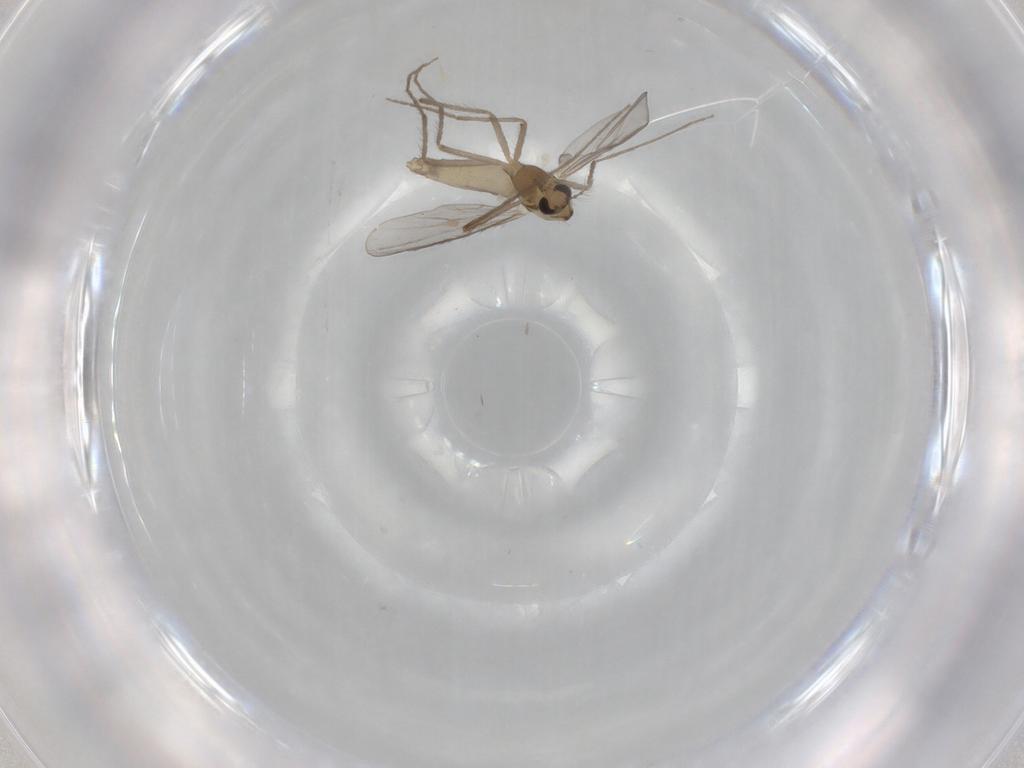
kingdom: Animalia
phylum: Arthropoda
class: Insecta
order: Diptera
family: Chironomidae
